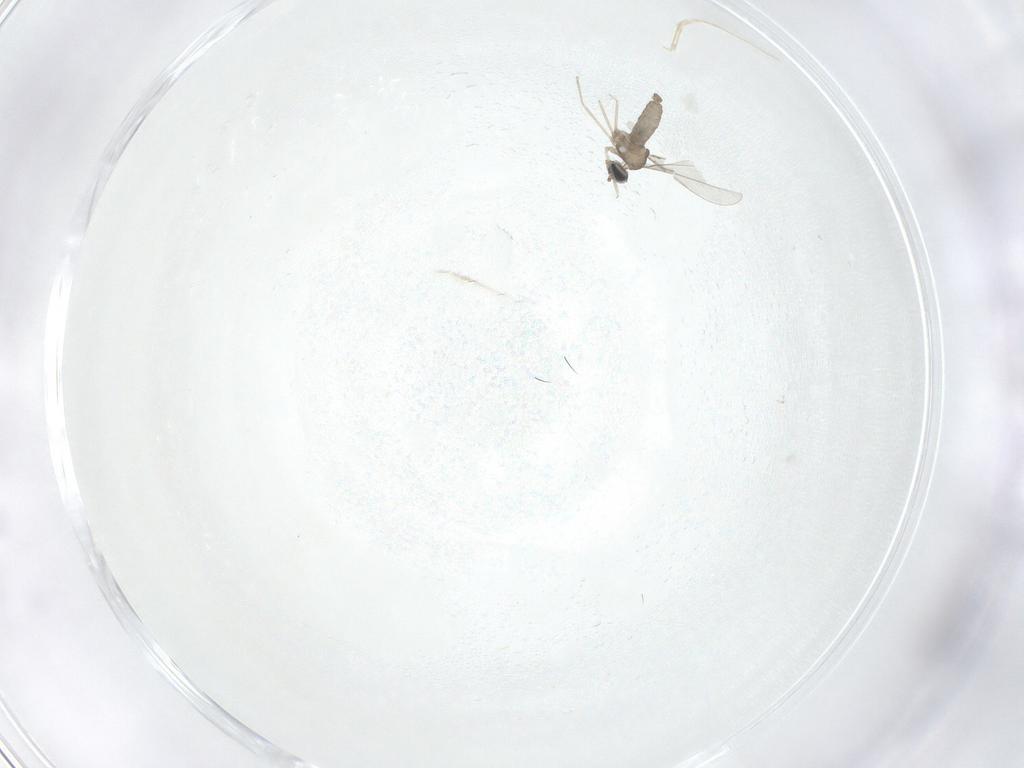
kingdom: Animalia
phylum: Arthropoda
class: Insecta
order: Diptera
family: Cecidomyiidae
